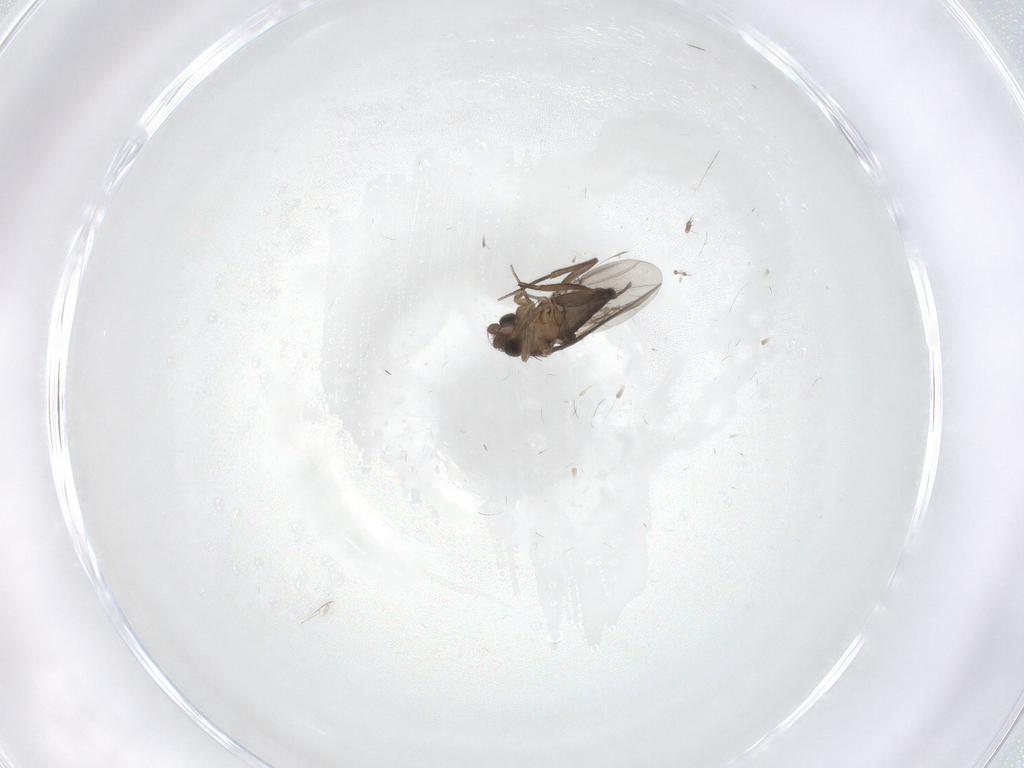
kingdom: Animalia
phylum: Arthropoda
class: Insecta
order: Diptera
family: Phoridae
